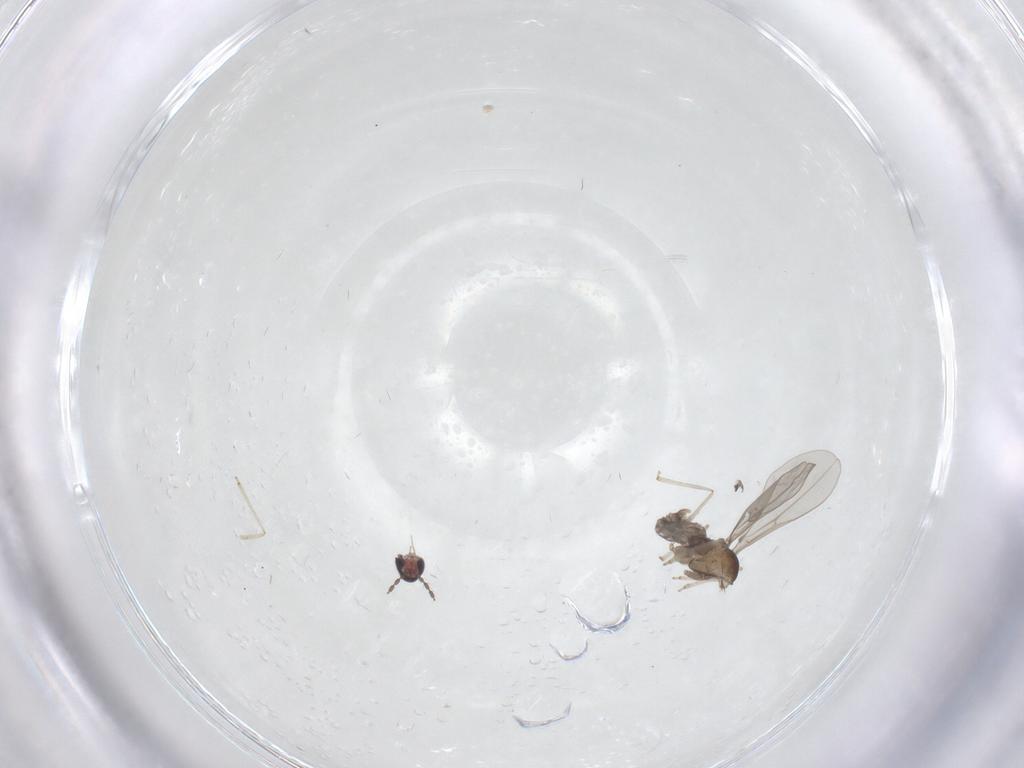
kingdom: Animalia
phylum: Arthropoda
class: Insecta
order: Diptera
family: Cecidomyiidae
